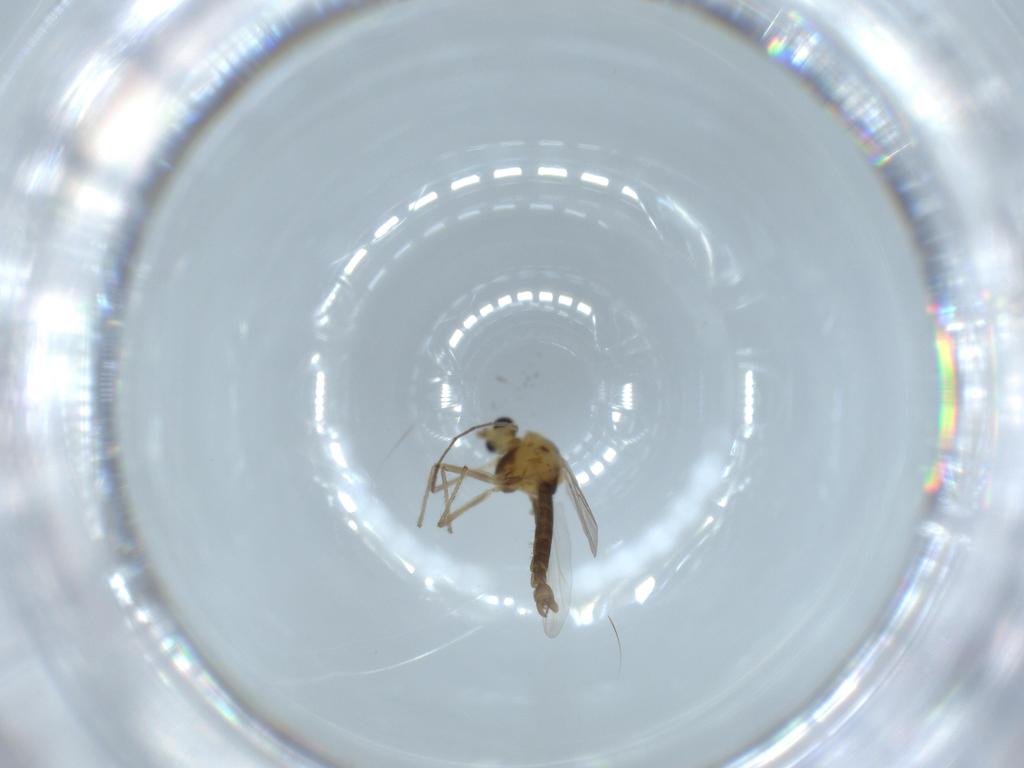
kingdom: Animalia
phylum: Arthropoda
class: Insecta
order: Diptera
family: Chironomidae
